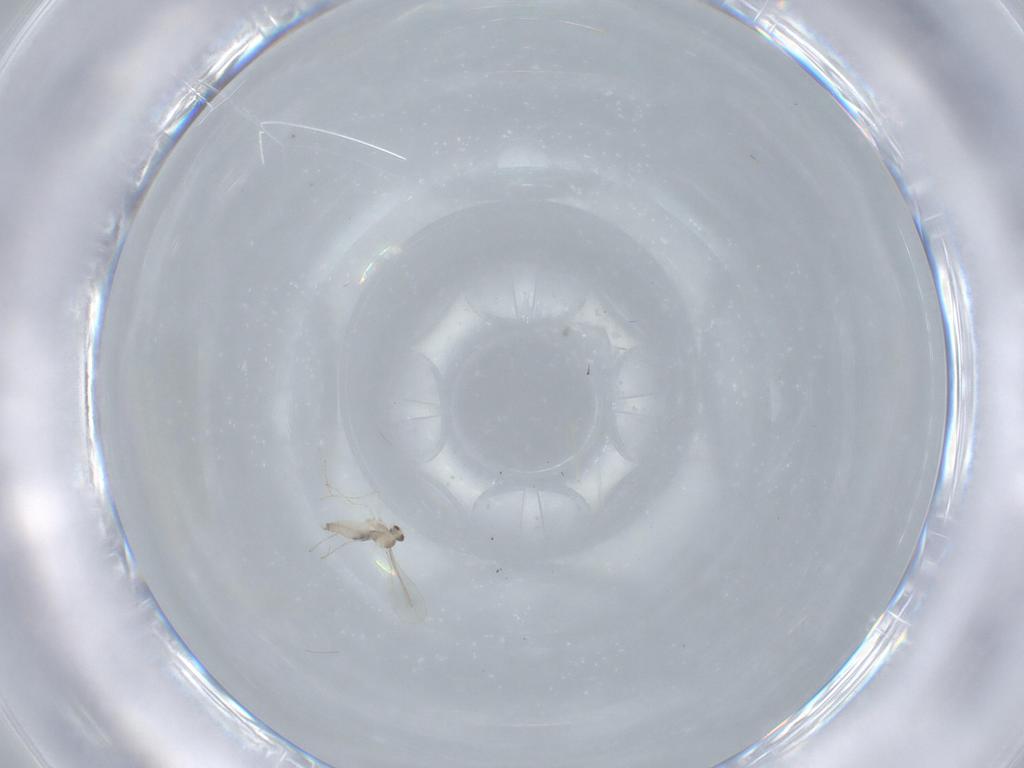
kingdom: Animalia
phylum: Arthropoda
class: Insecta
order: Diptera
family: Cecidomyiidae
